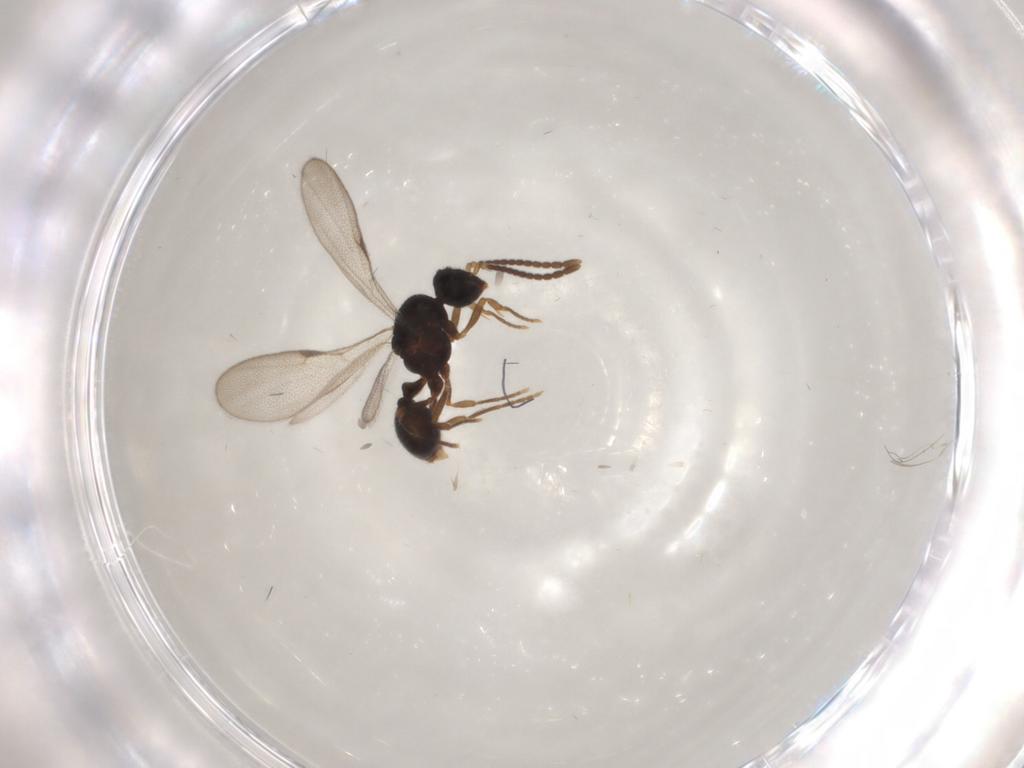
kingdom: Animalia
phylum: Arthropoda
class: Insecta
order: Hymenoptera
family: Formicidae
